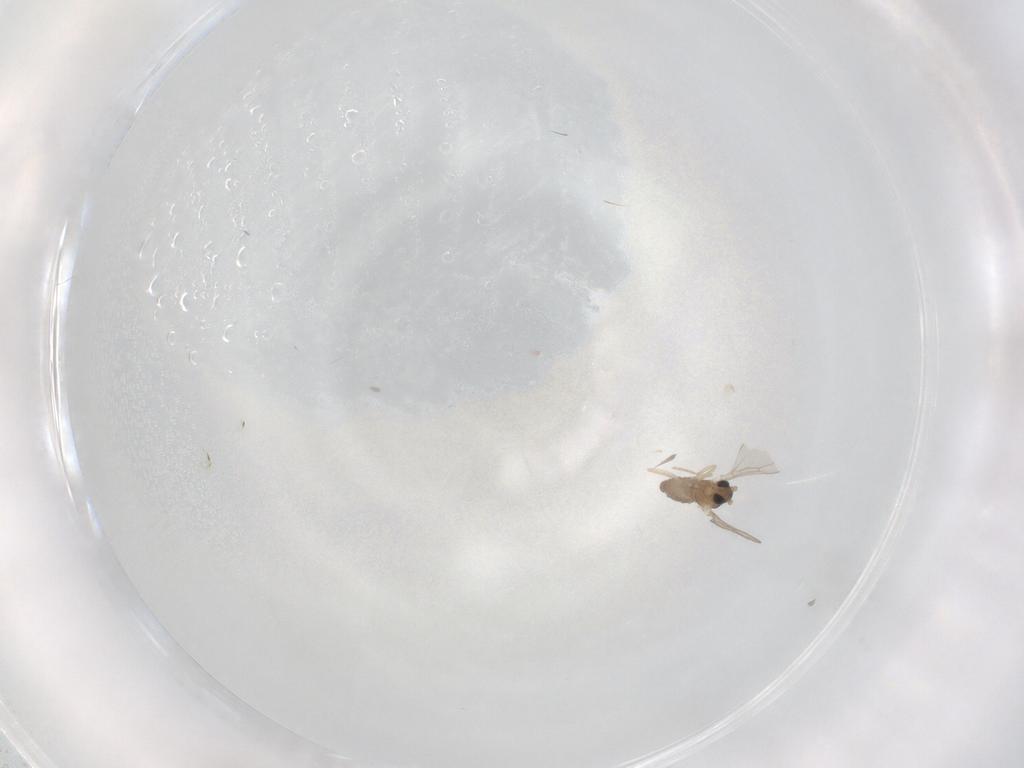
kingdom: Animalia
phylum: Arthropoda
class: Insecta
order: Diptera
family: Cecidomyiidae
